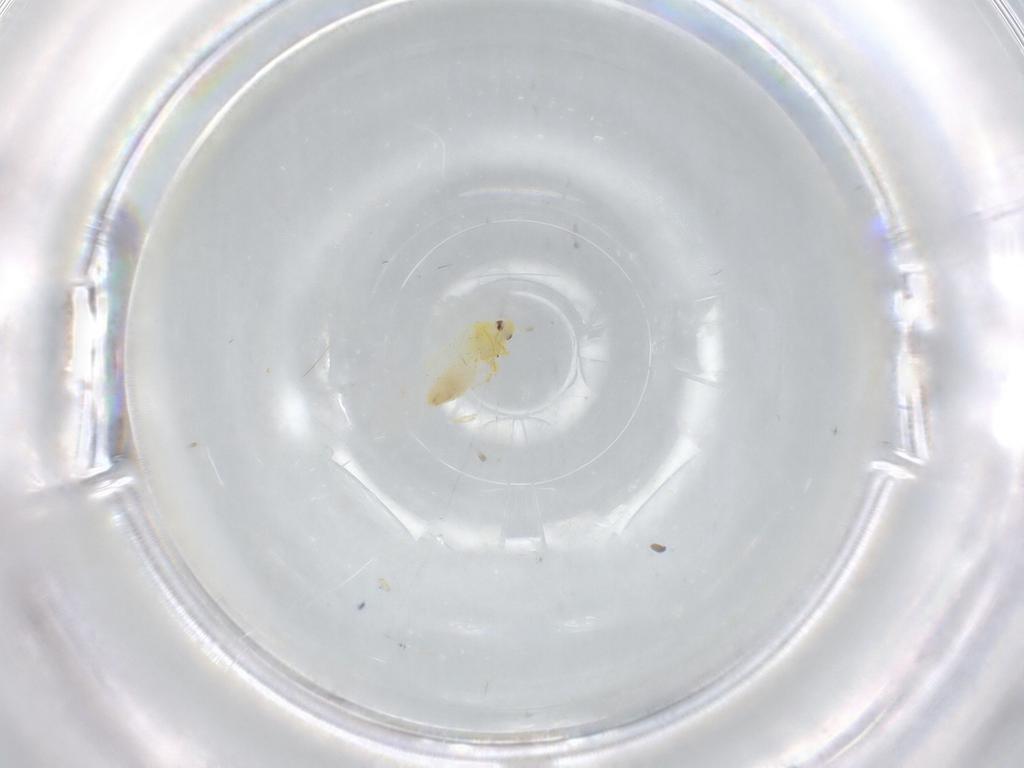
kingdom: Animalia
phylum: Arthropoda
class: Insecta
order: Hemiptera
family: Aleyrodidae
